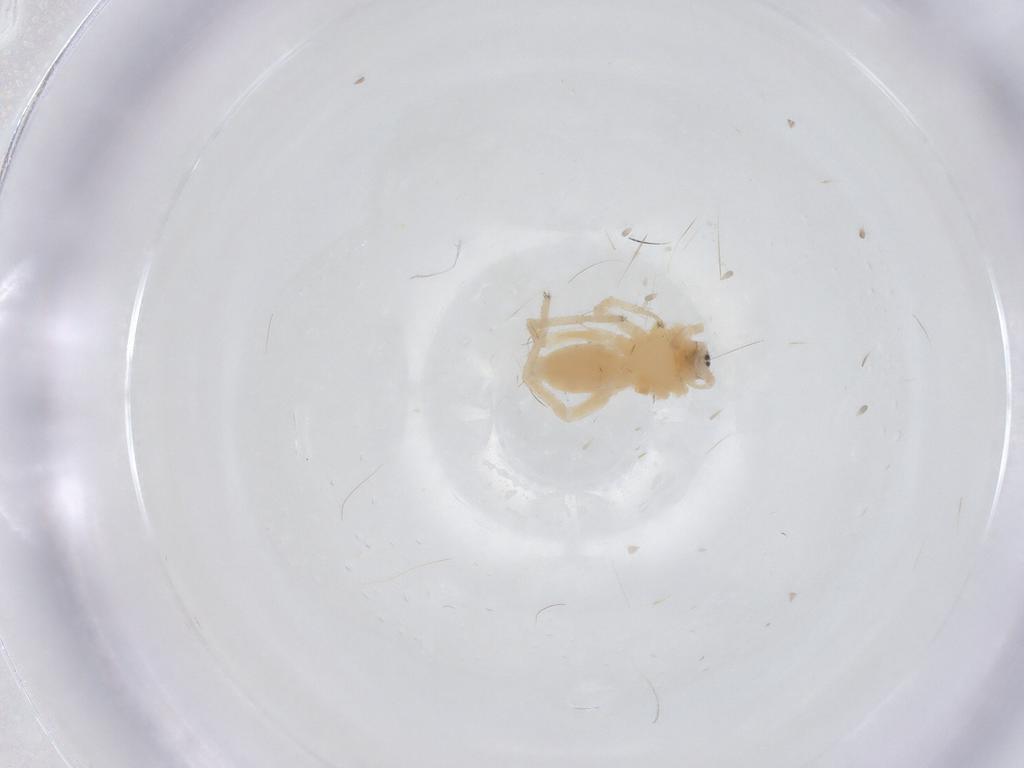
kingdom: Animalia
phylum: Arthropoda
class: Arachnida
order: Araneae
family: Anyphaenidae
